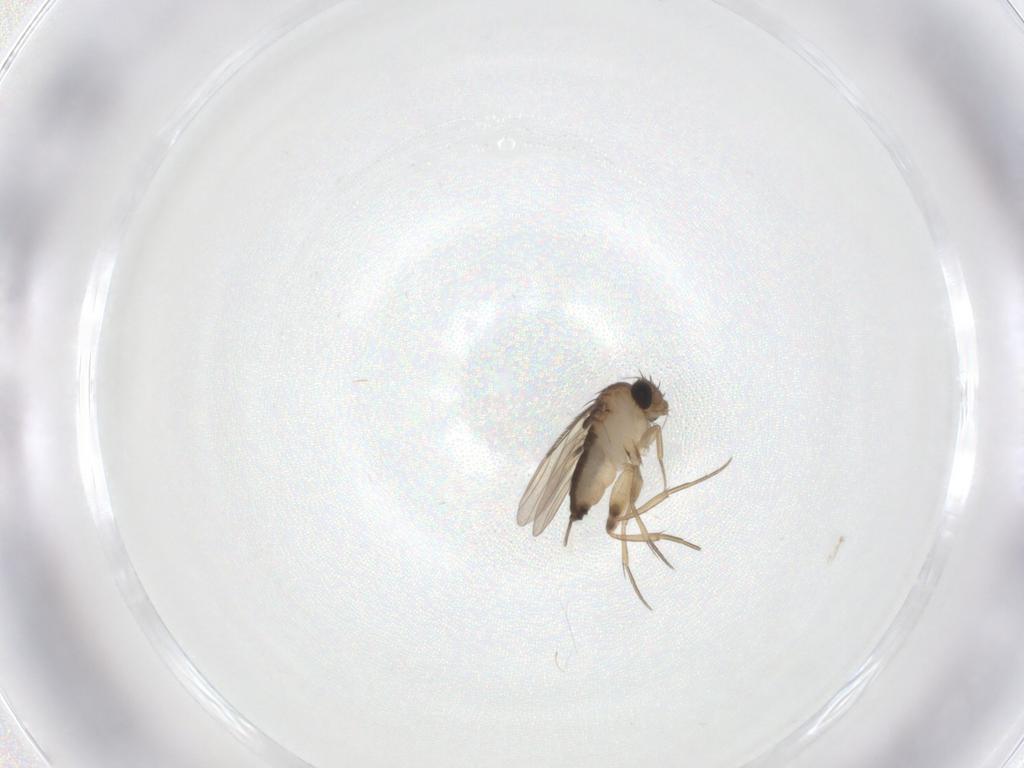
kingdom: Animalia
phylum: Arthropoda
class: Insecta
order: Diptera
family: Phoridae
